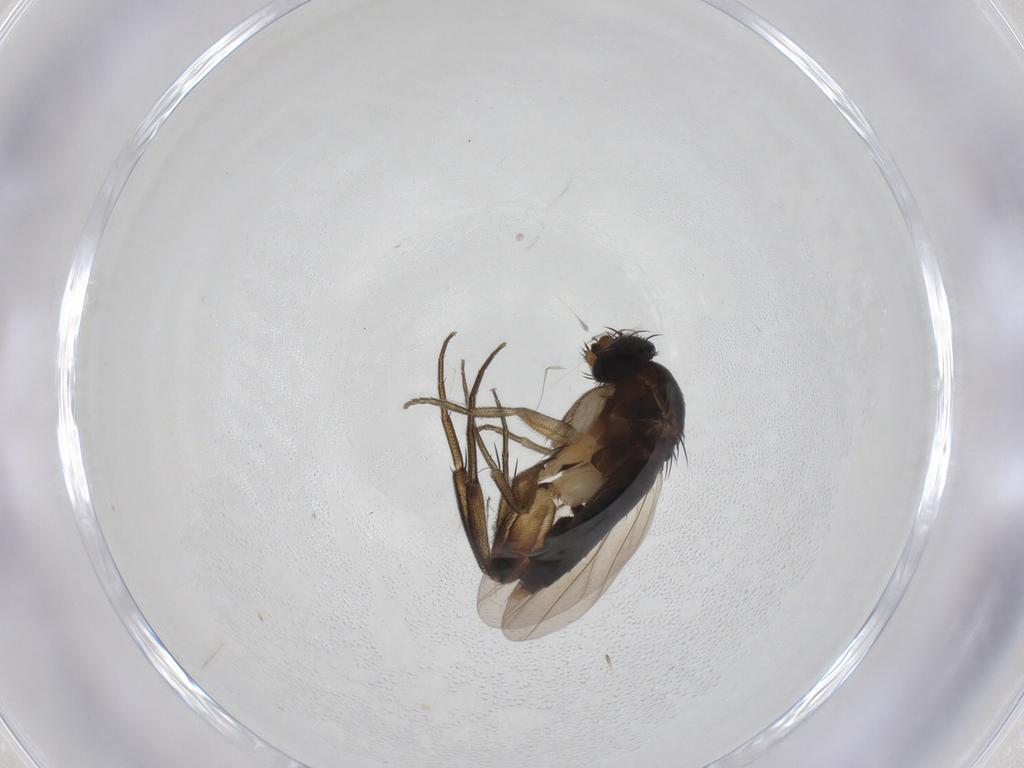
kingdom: Animalia
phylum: Arthropoda
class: Insecta
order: Diptera
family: Phoridae
